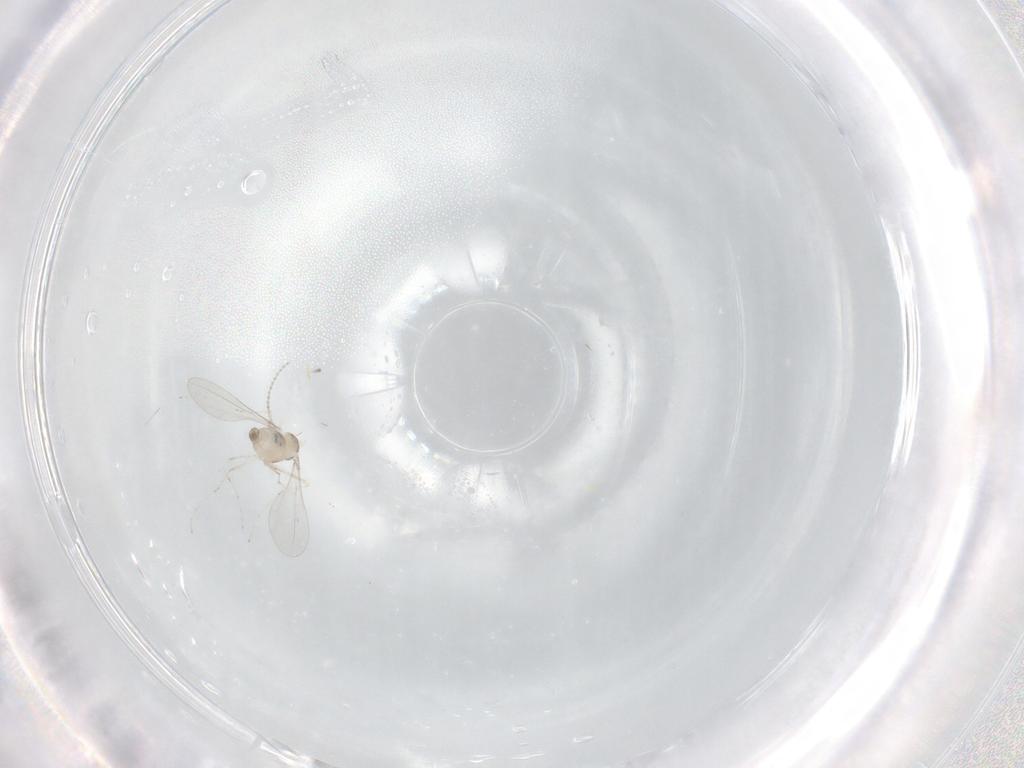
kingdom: Animalia
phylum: Arthropoda
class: Insecta
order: Diptera
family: Cecidomyiidae
